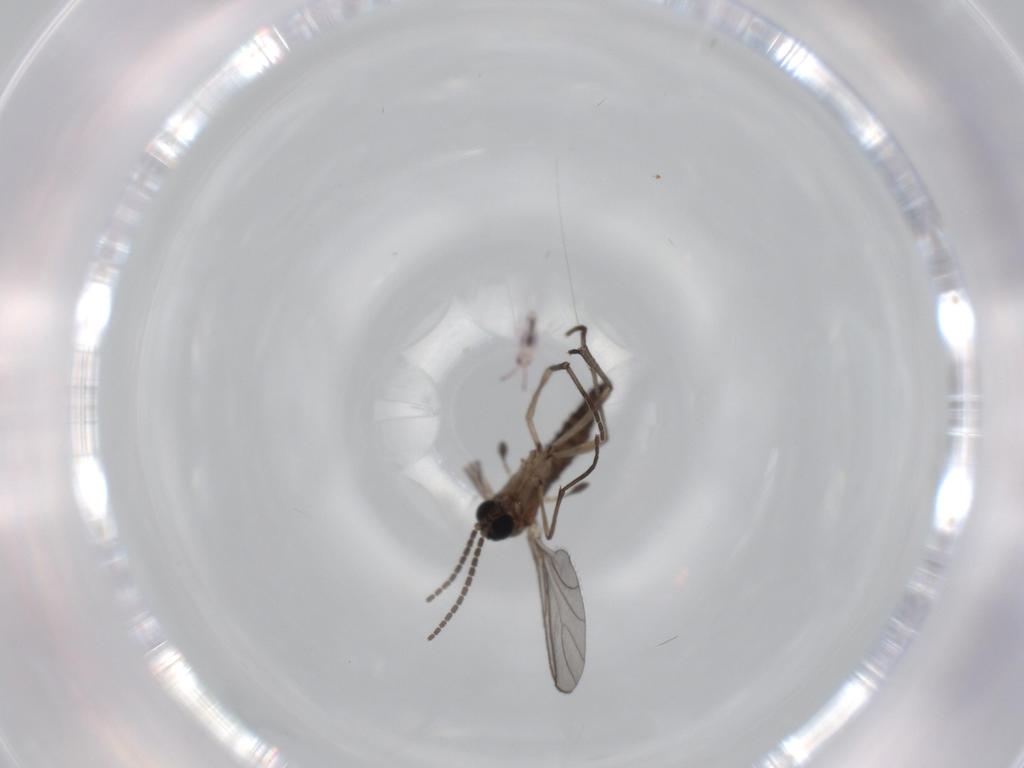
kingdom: Animalia
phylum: Arthropoda
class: Insecta
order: Diptera
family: Sciaridae
